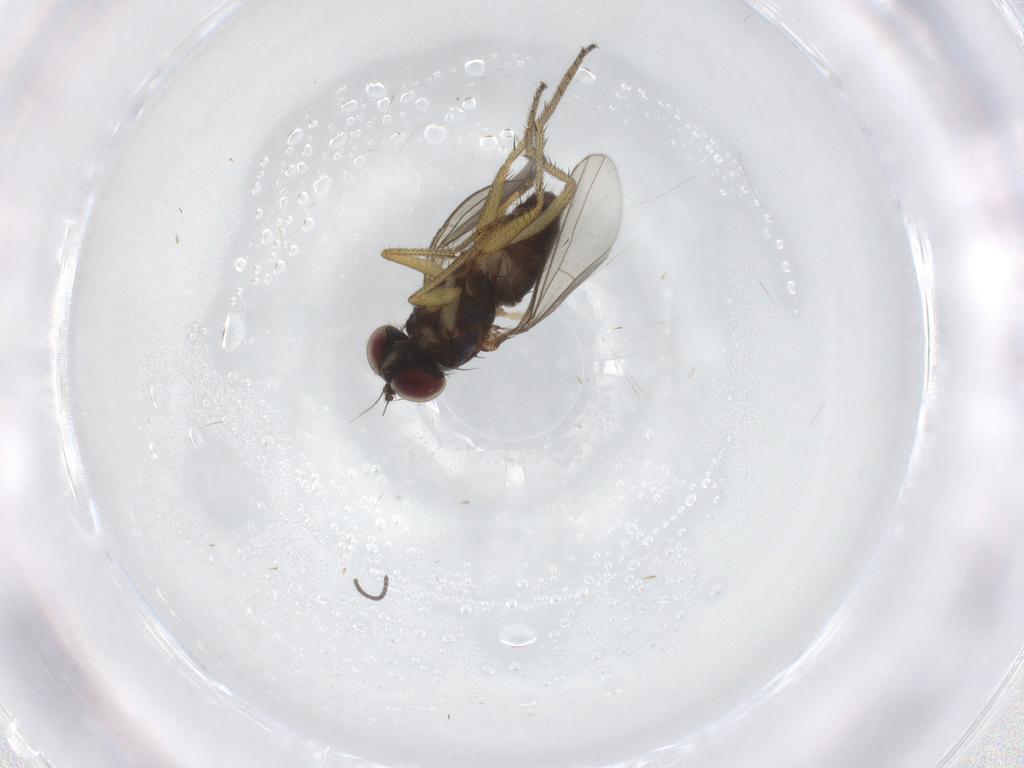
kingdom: Animalia
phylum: Arthropoda
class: Insecta
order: Diptera
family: Dolichopodidae
